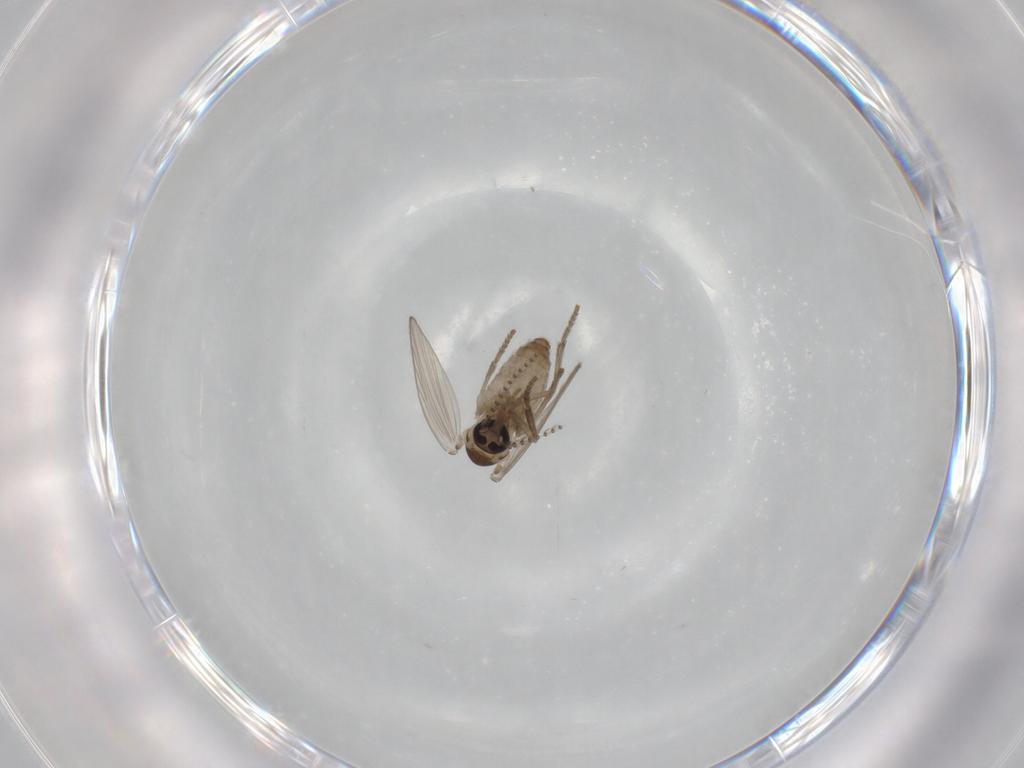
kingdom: Animalia
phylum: Arthropoda
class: Insecta
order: Diptera
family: Psychodidae
